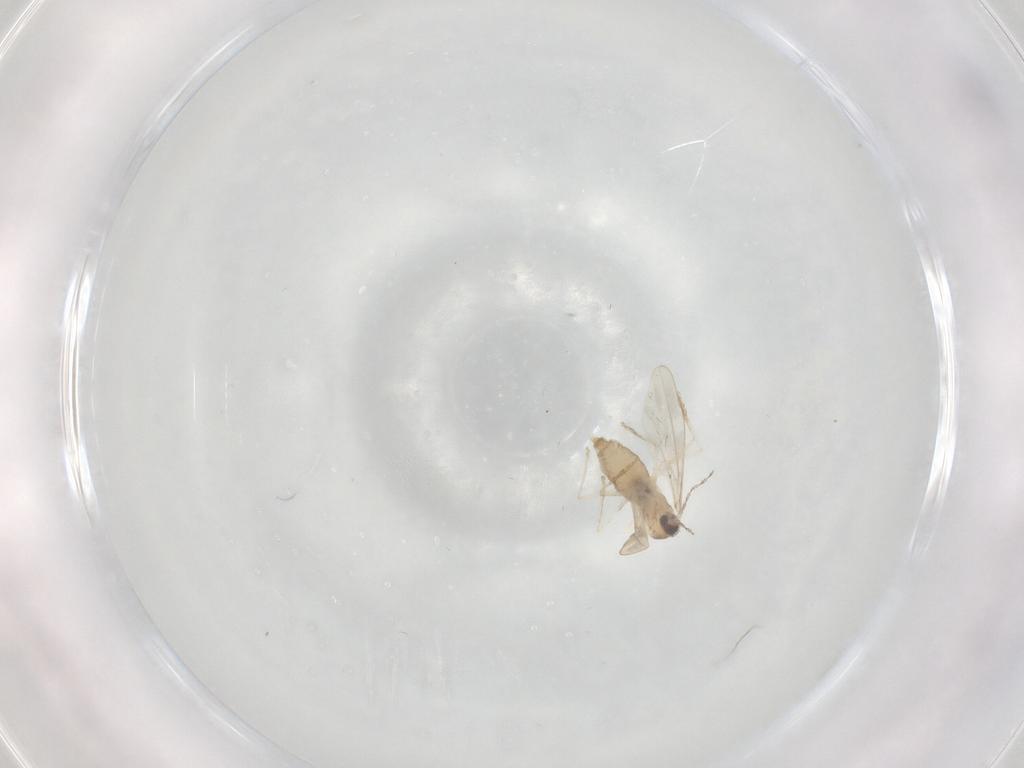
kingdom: Animalia
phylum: Arthropoda
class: Insecta
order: Diptera
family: Cecidomyiidae
